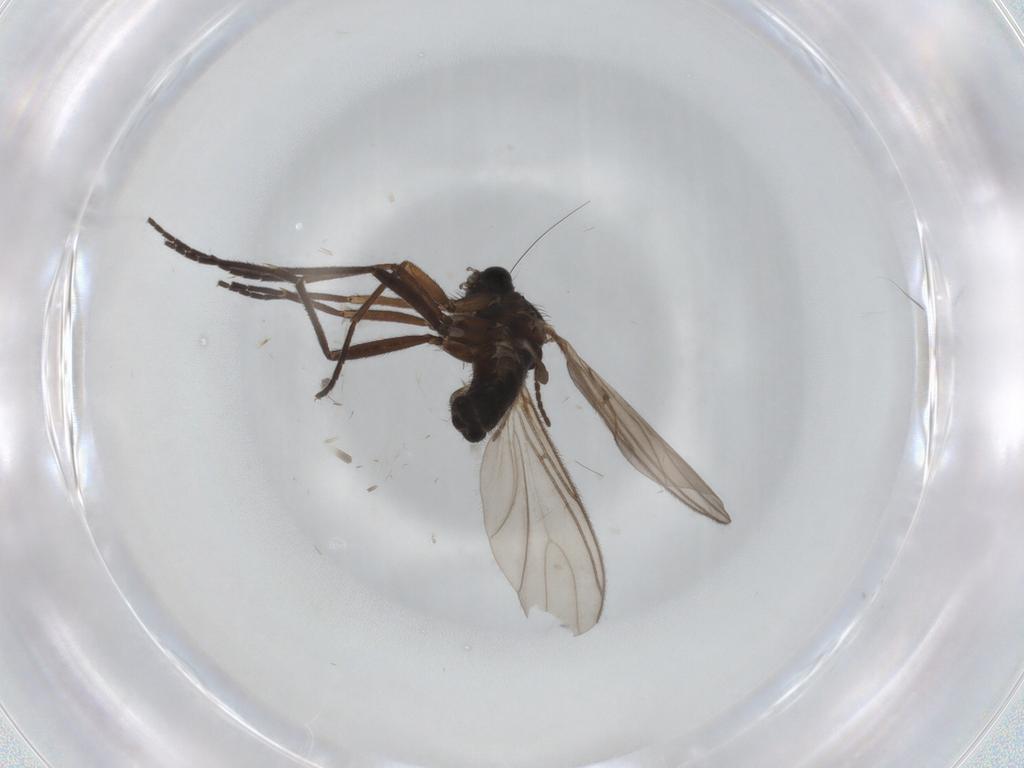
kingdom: Animalia
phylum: Arthropoda
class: Insecta
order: Diptera
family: Sciaridae
